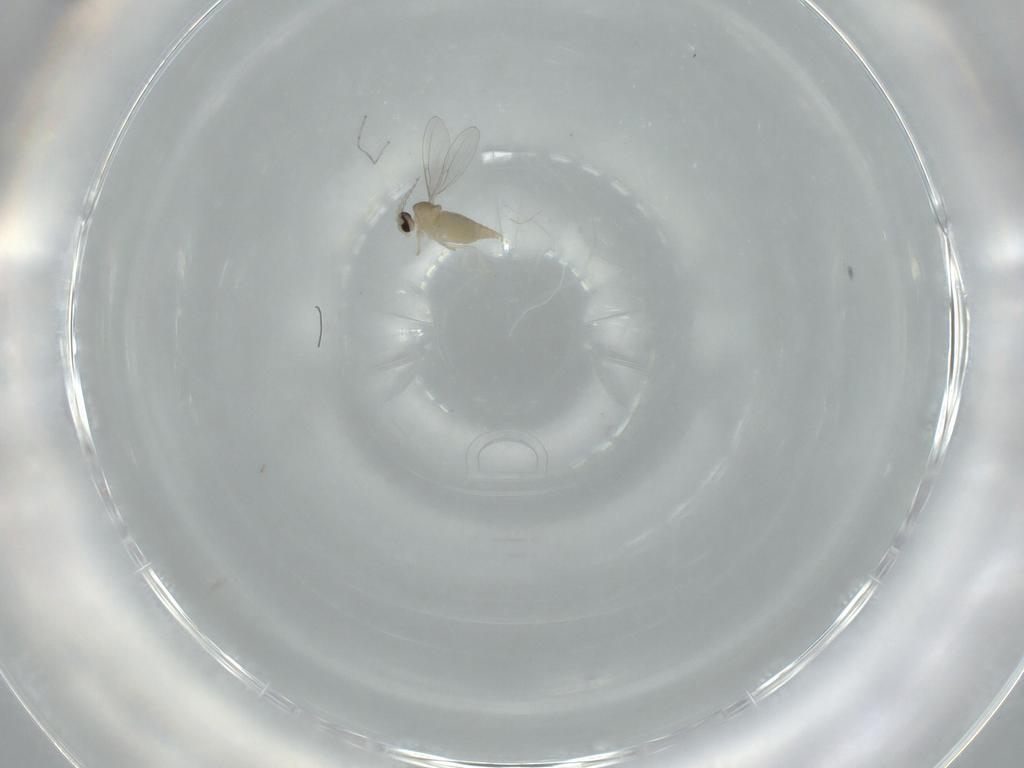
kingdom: Animalia
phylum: Arthropoda
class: Insecta
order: Diptera
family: Cecidomyiidae
